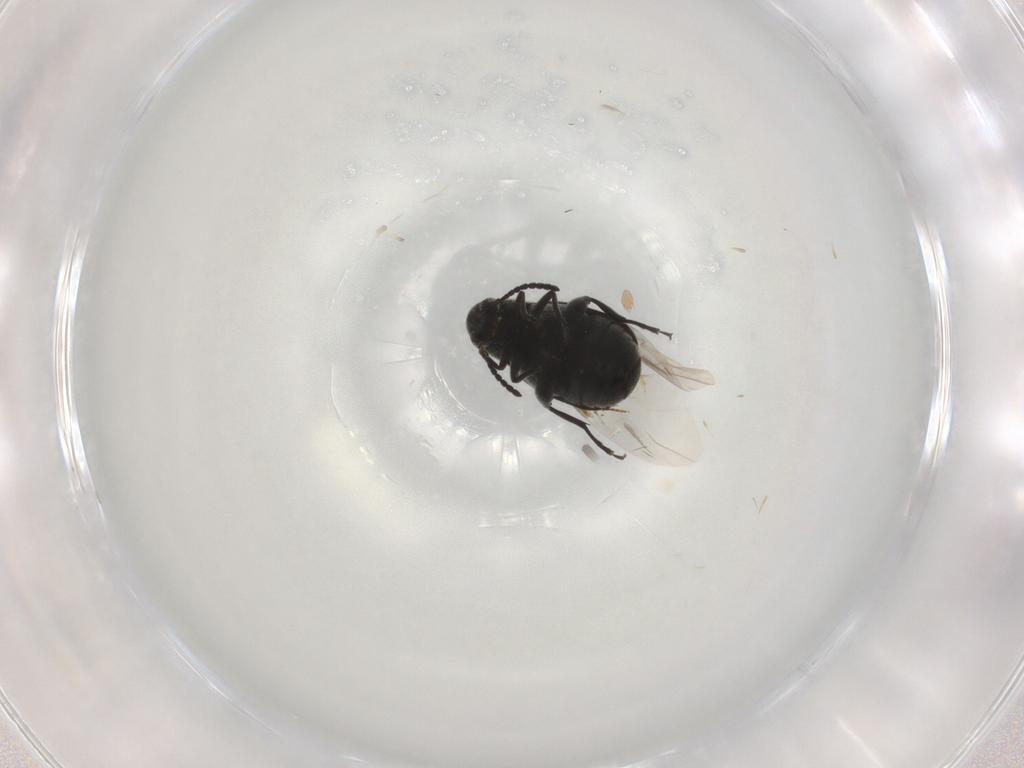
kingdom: Animalia
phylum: Arthropoda
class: Insecta
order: Coleoptera
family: Chrysomelidae
